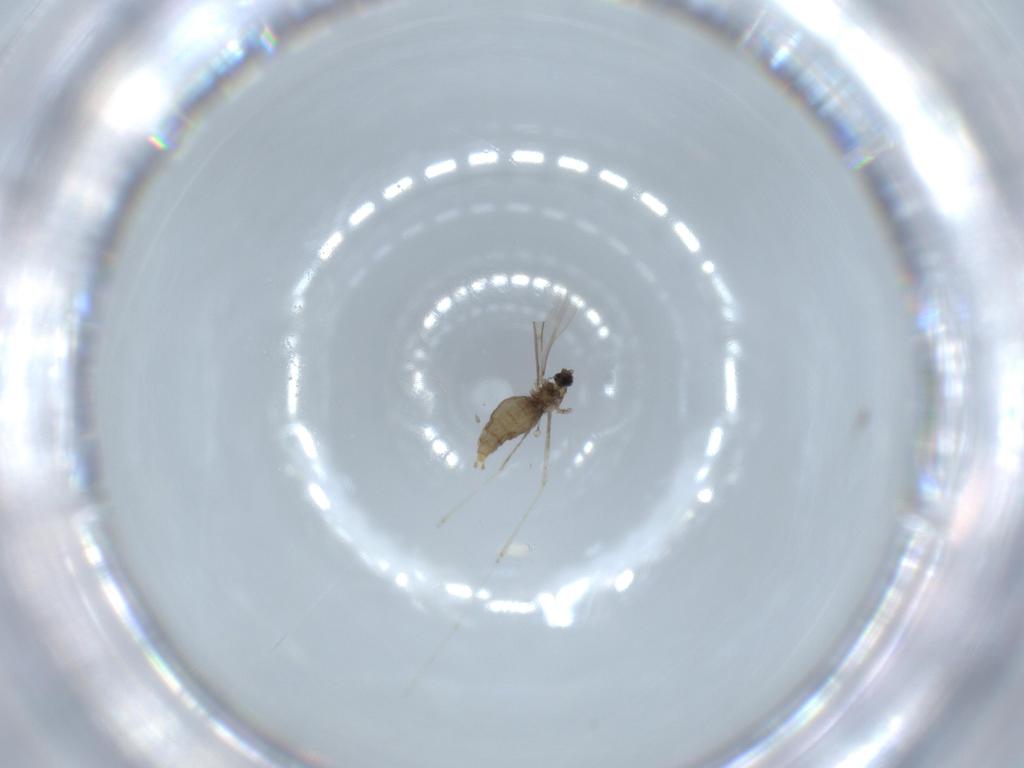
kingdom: Animalia
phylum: Arthropoda
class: Insecta
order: Diptera
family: Cecidomyiidae
